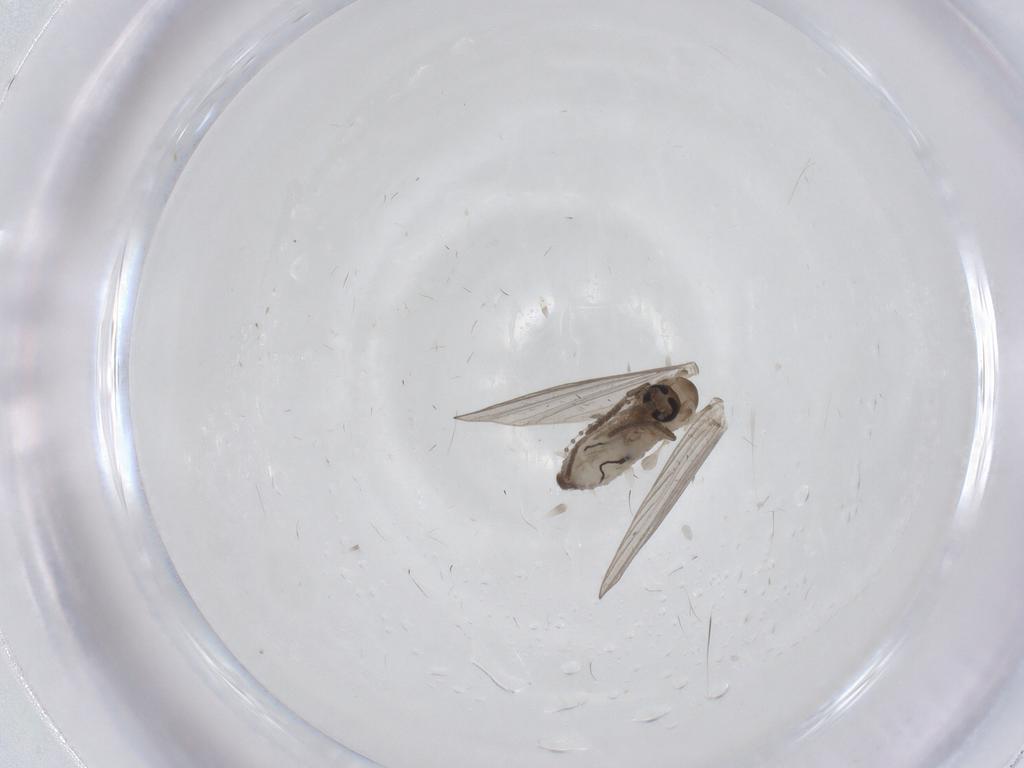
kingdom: Animalia
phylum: Arthropoda
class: Insecta
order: Diptera
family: Psychodidae
